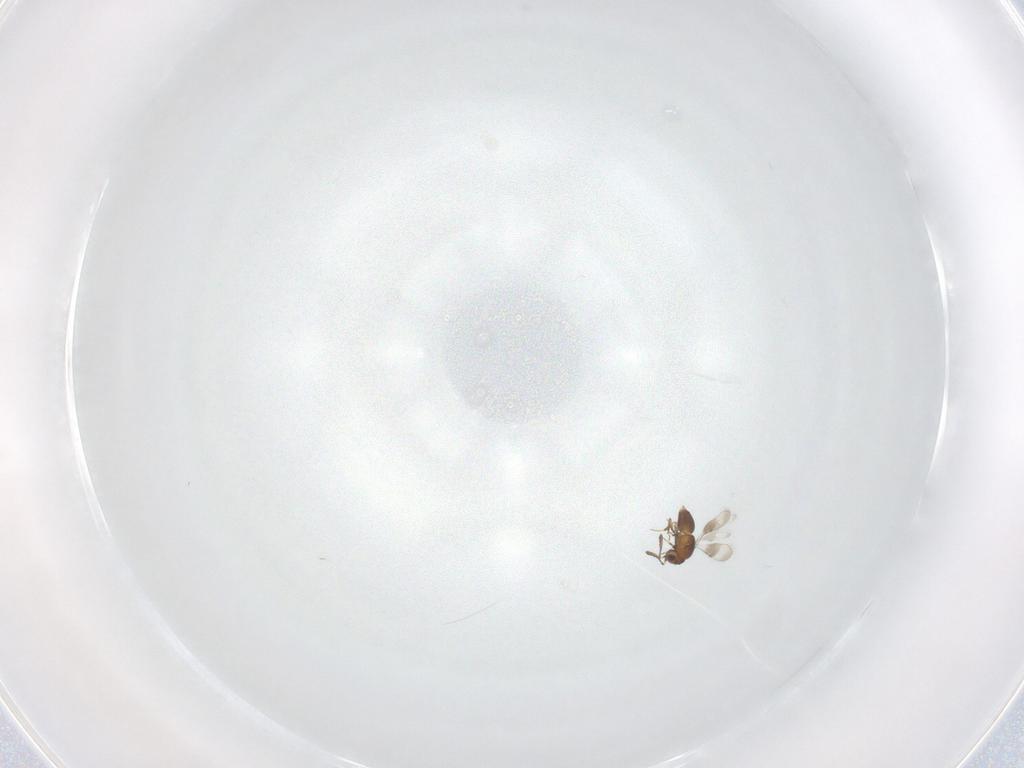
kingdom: Animalia
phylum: Arthropoda
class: Insecta
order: Hymenoptera
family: Ceraphronidae
